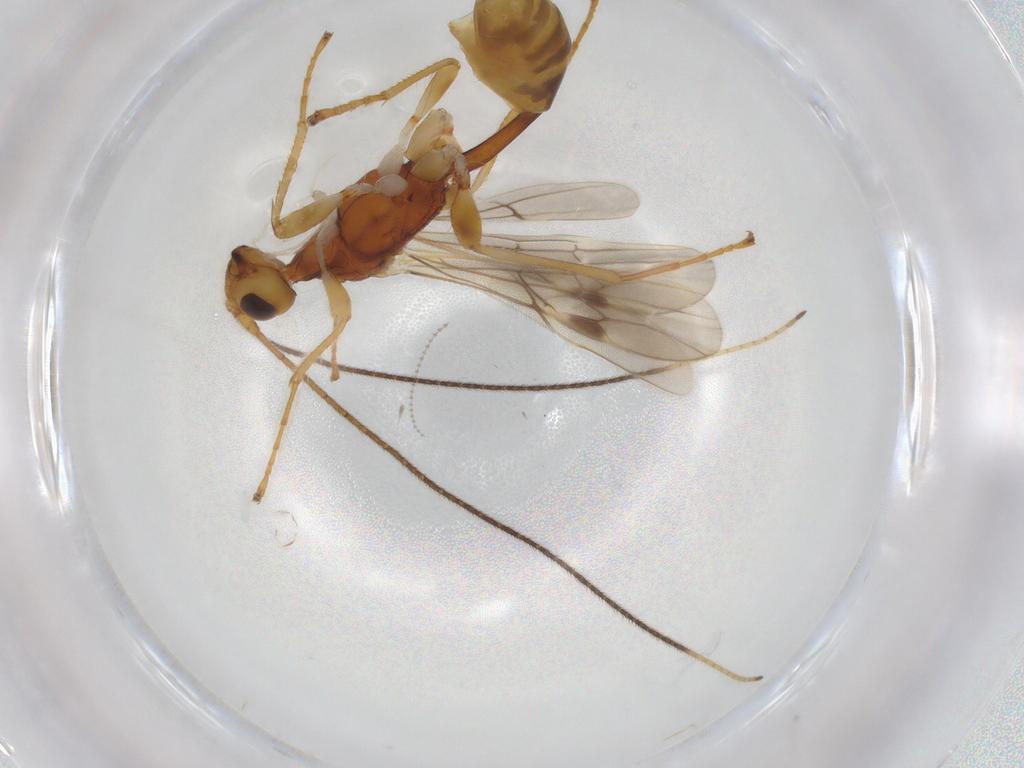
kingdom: Animalia
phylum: Arthropoda
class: Insecta
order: Hymenoptera
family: Braconidae
